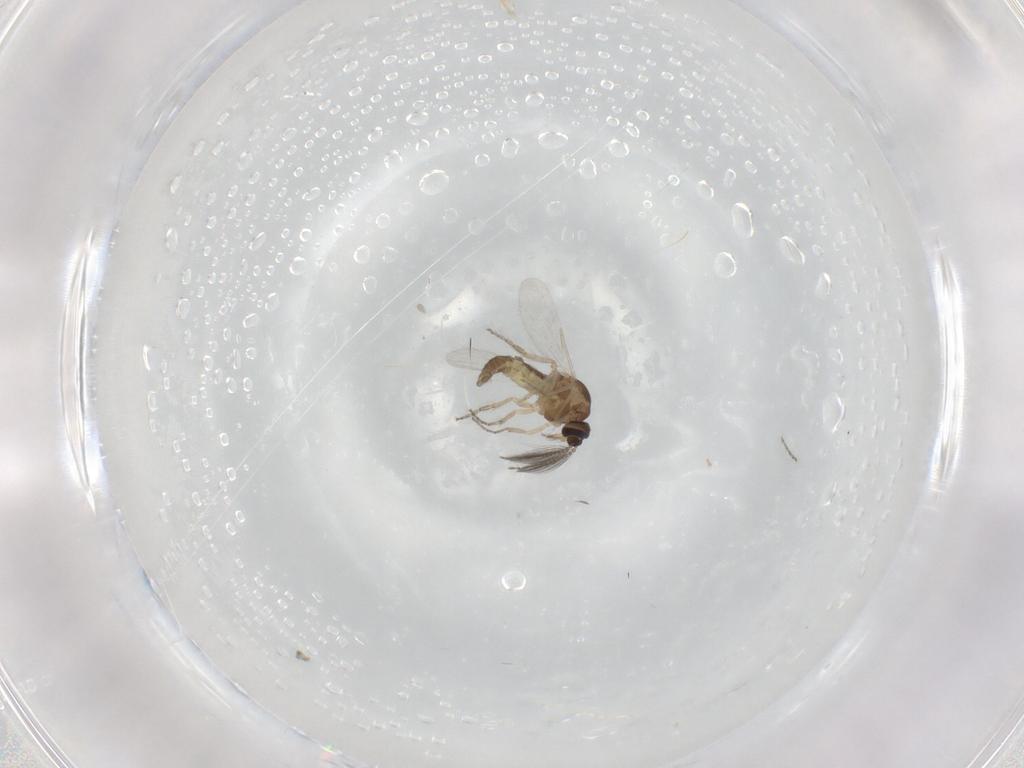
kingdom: Animalia
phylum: Arthropoda
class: Insecta
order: Diptera
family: Ceratopogonidae
